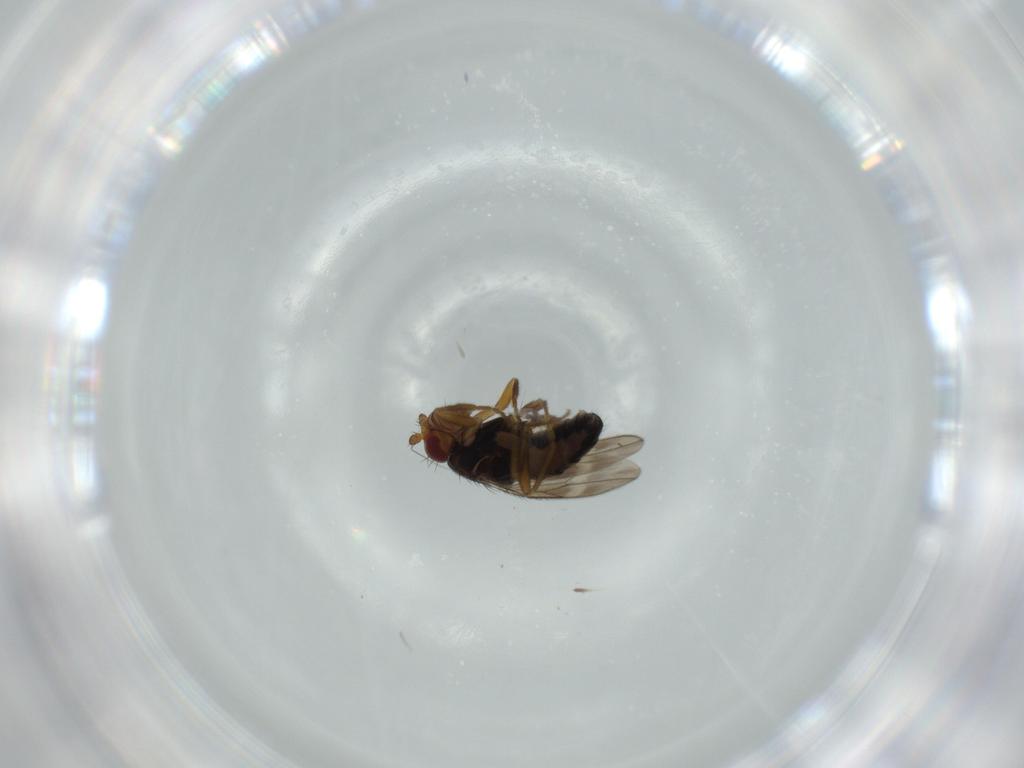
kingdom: Animalia
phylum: Arthropoda
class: Insecta
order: Diptera
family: Sphaeroceridae
